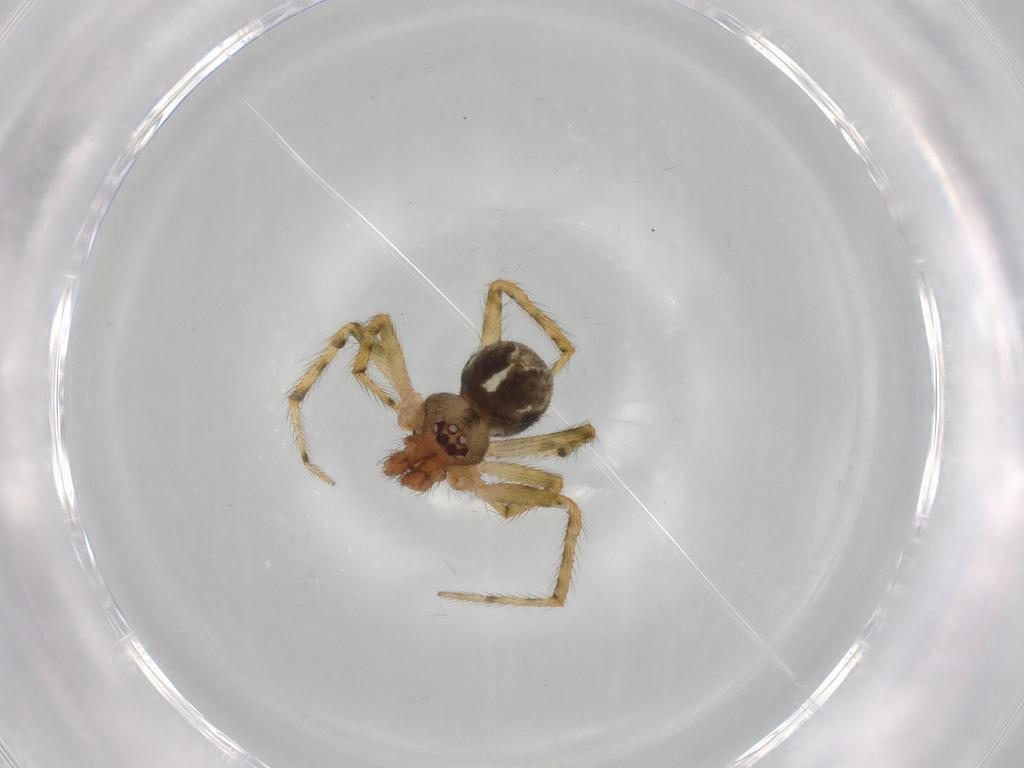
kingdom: Animalia
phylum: Arthropoda
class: Arachnida
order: Araneae
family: Theridiidae
